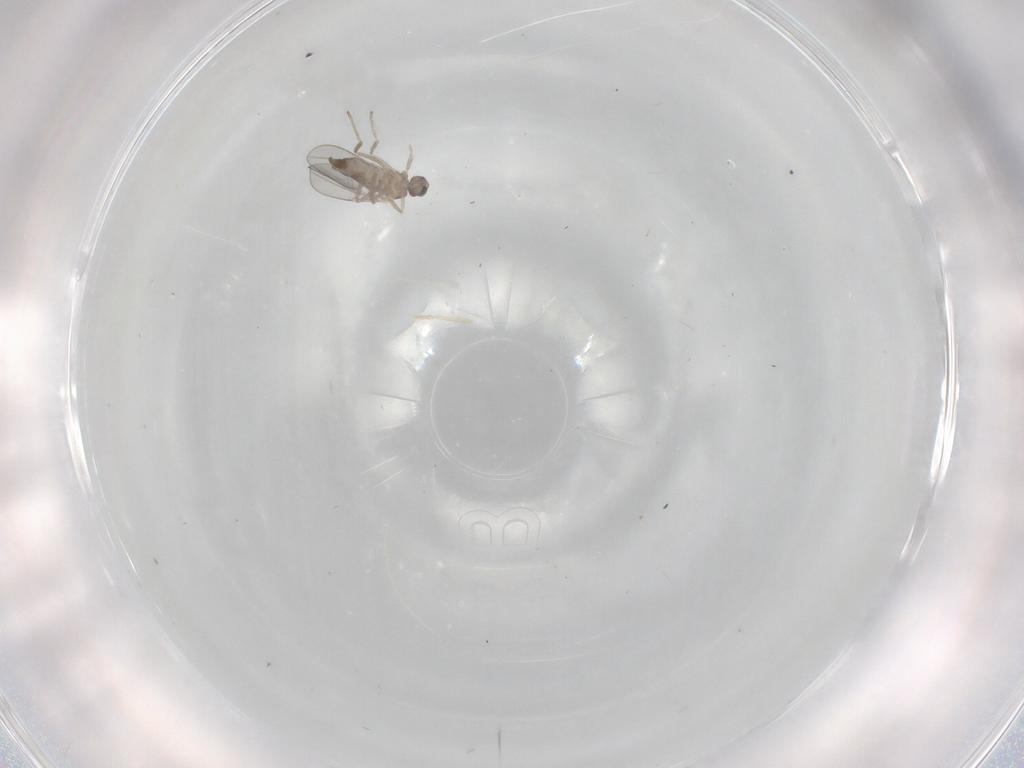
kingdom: Animalia
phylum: Arthropoda
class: Insecta
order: Diptera
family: Cecidomyiidae
